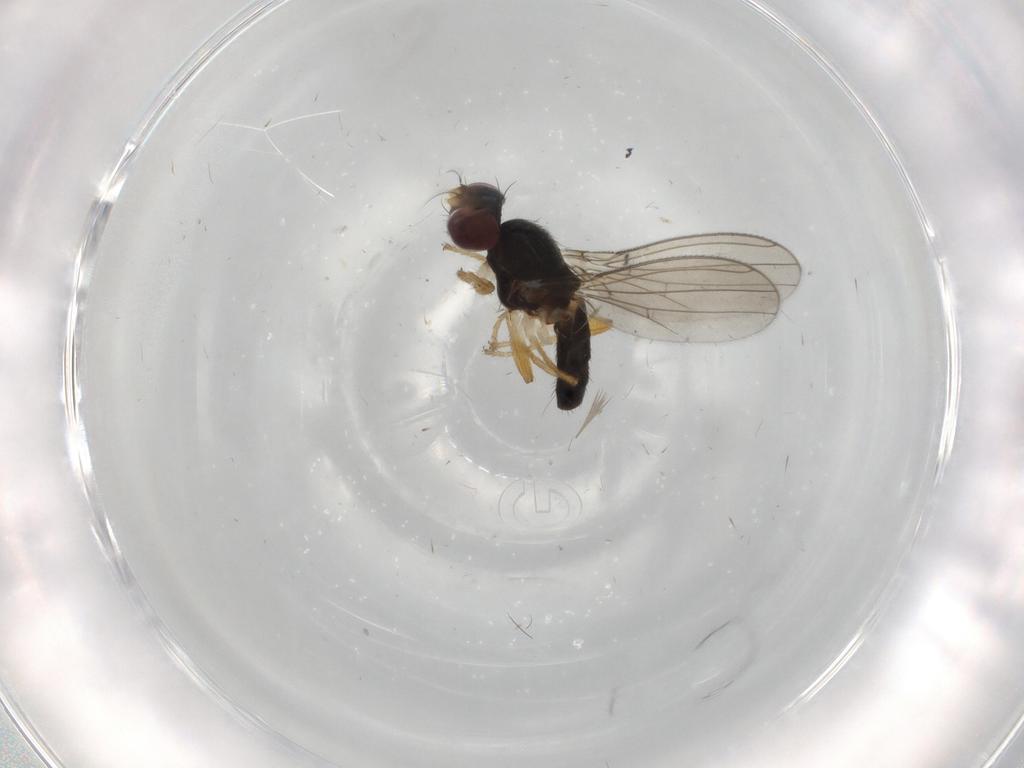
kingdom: Animalia
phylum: Arthropoda
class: Insecta
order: Diptera
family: Anthomyzidae
